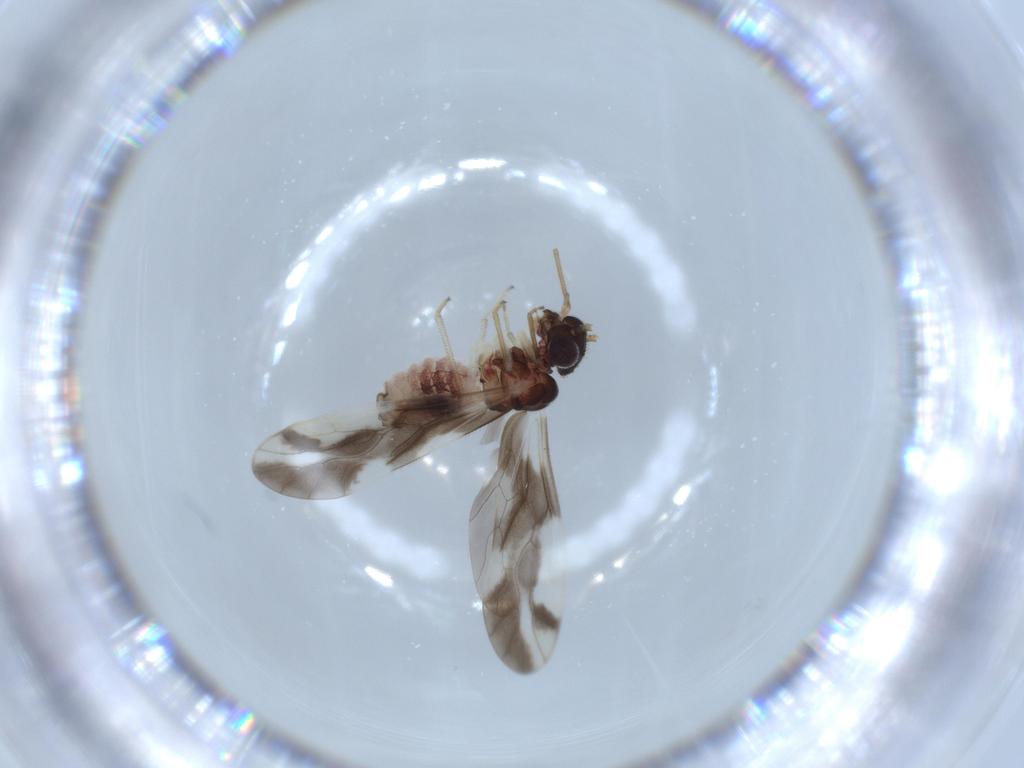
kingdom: Animalia
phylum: Arthropoda
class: Insecta
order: Psocodea
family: Caeciliusidae
